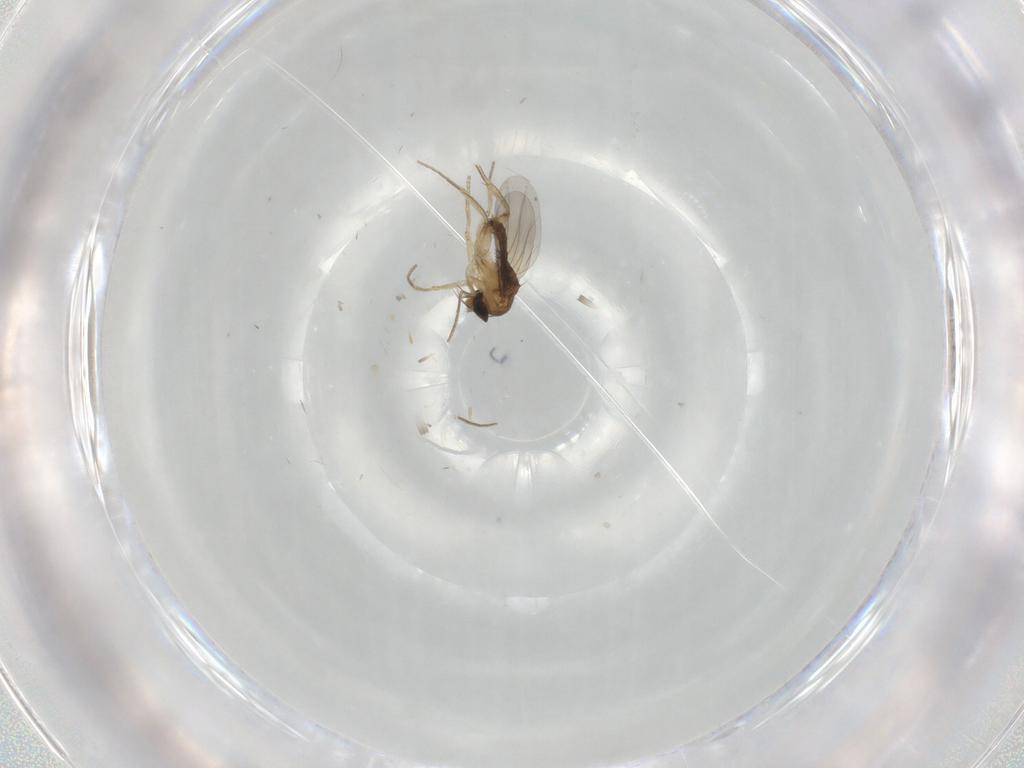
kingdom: Animalia
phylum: Arthropoda
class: Insecta
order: Diptera
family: Phoridae
